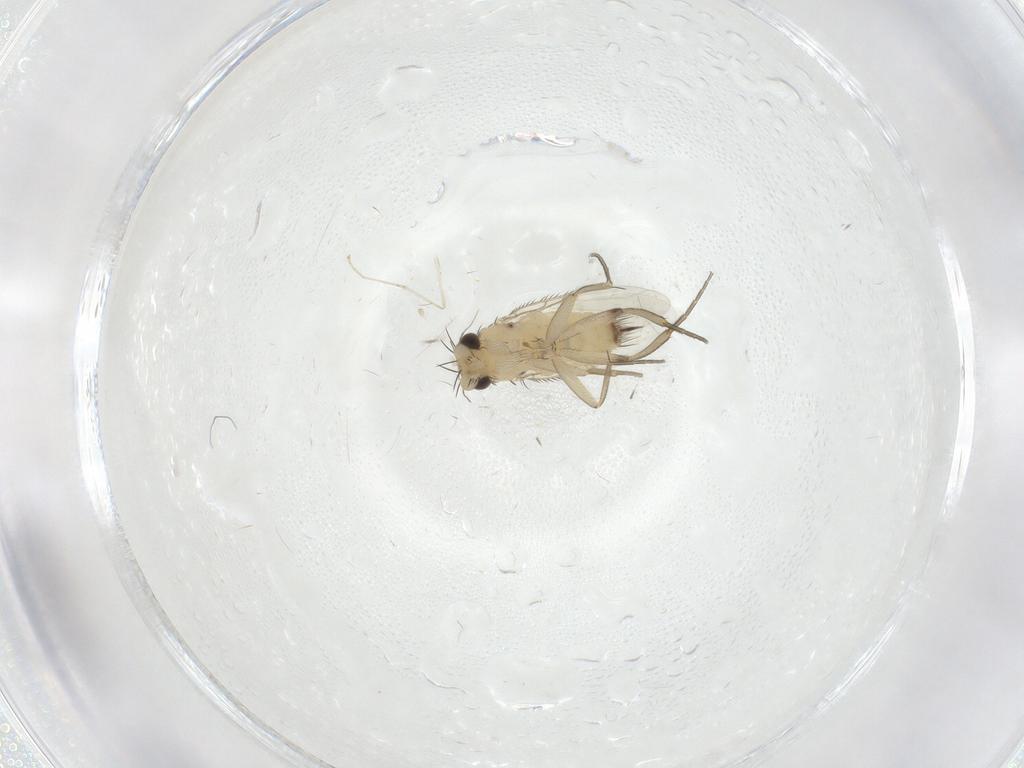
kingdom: Animalia
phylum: Arthropoda
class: Insecta
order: Diptera
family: Phoridae
